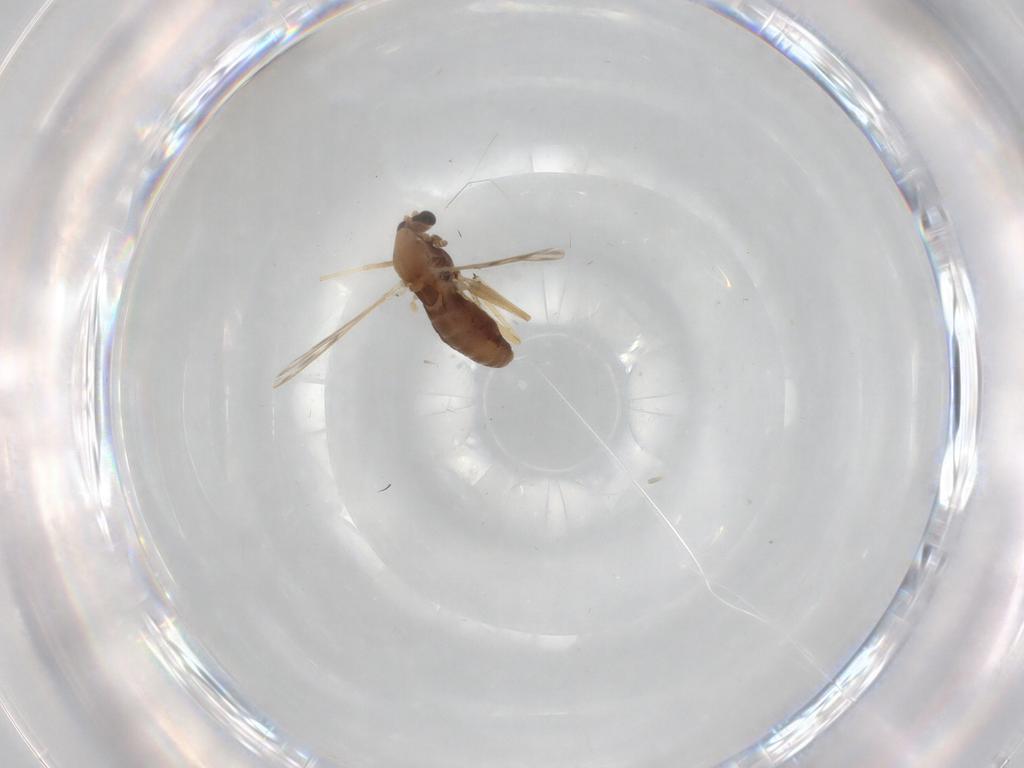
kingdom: Animalia
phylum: Arthropoda
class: Insecta
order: Diptera
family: Chironomidae
